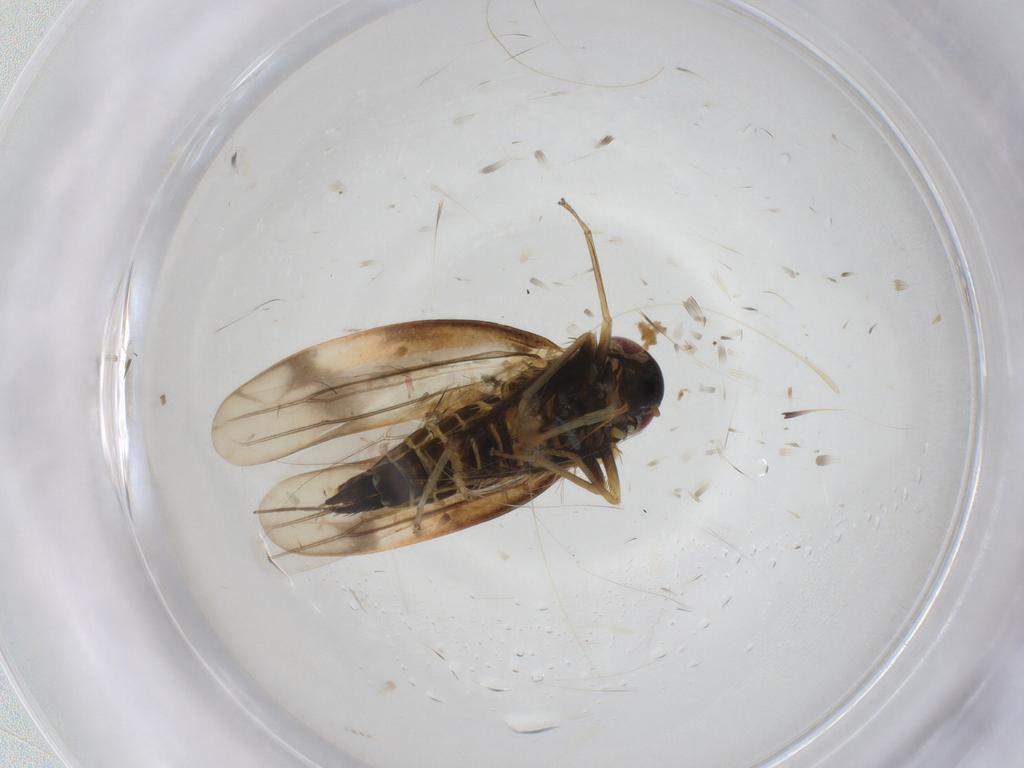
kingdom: Animalia
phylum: Arthropoda
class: Insecta
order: Hemiptera
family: Cicadellidae
